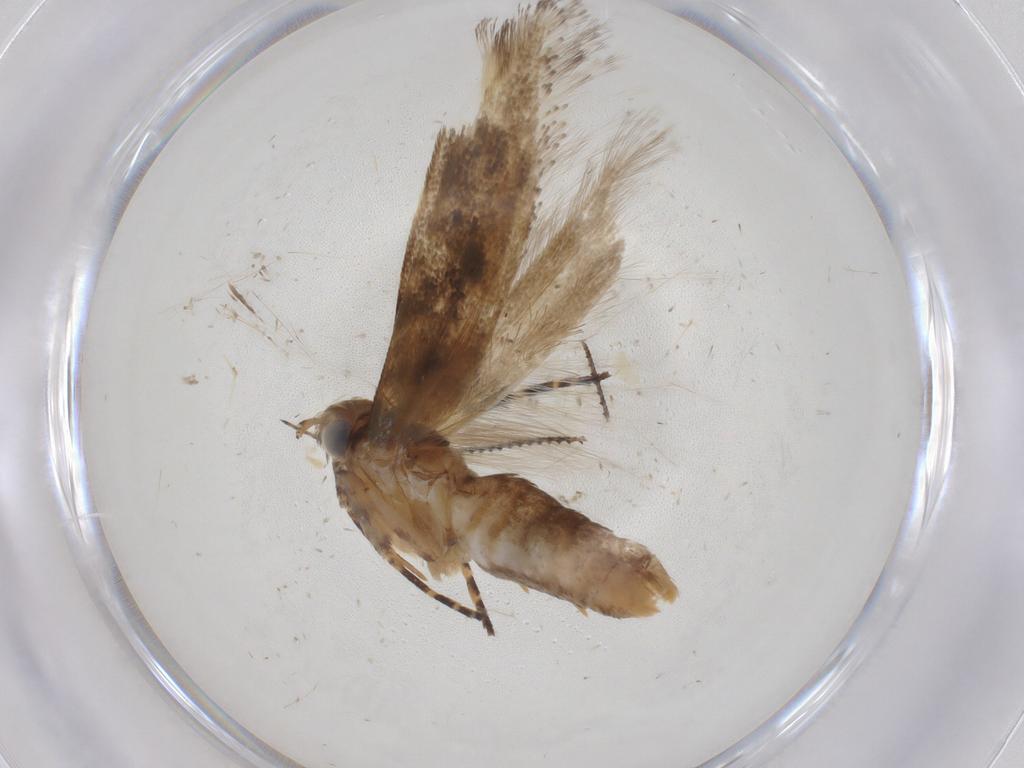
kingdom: Animalia
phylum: Arthropoda
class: Insecta
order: Lepidoptera
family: Gelechiidae
